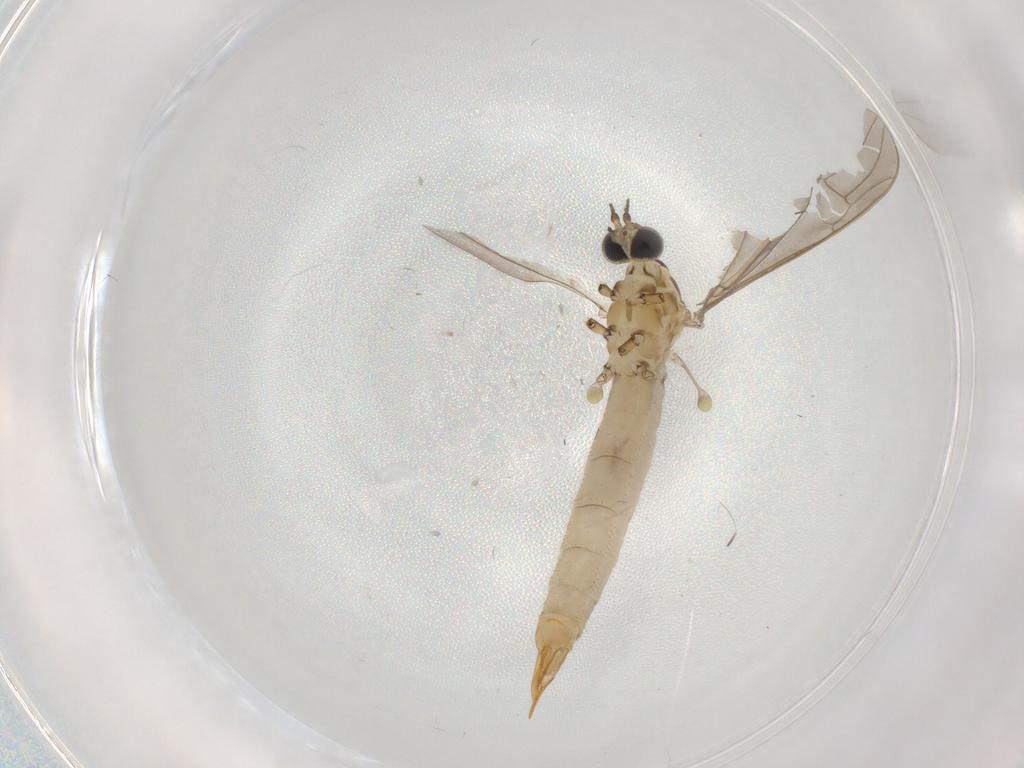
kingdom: Animalia
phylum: Arthropoda
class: Insecta
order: Diptera
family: Limoniidae
